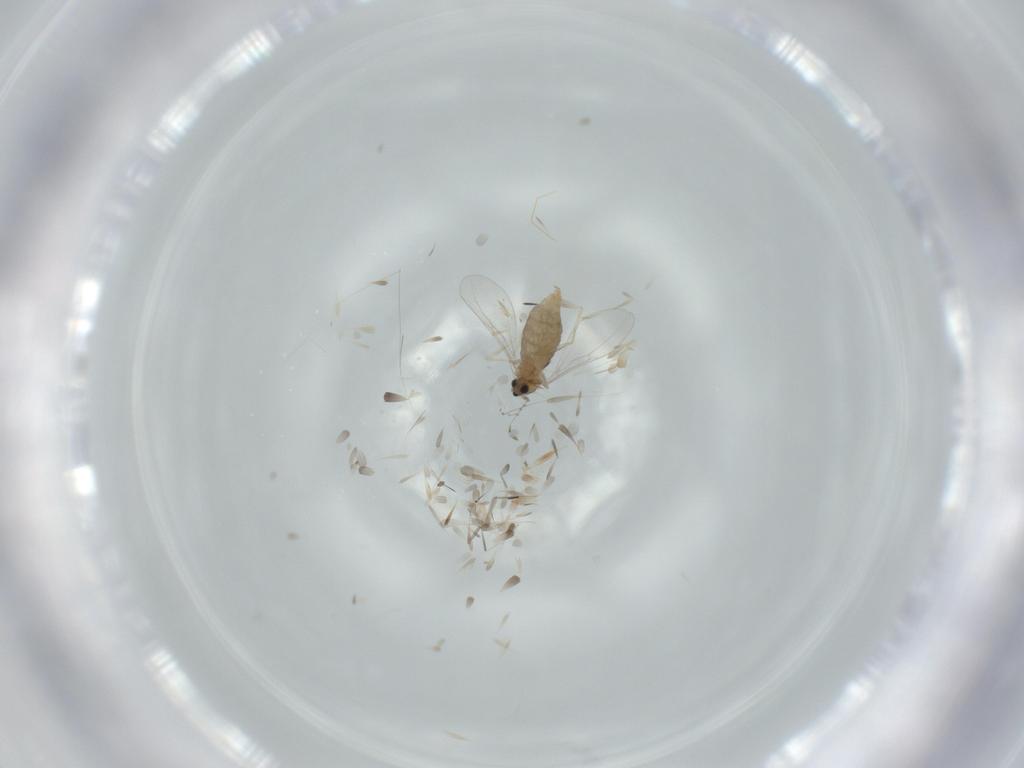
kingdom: Animalia
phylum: Arthropoda
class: Insecta
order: Diptera
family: Cecidomyiidae
